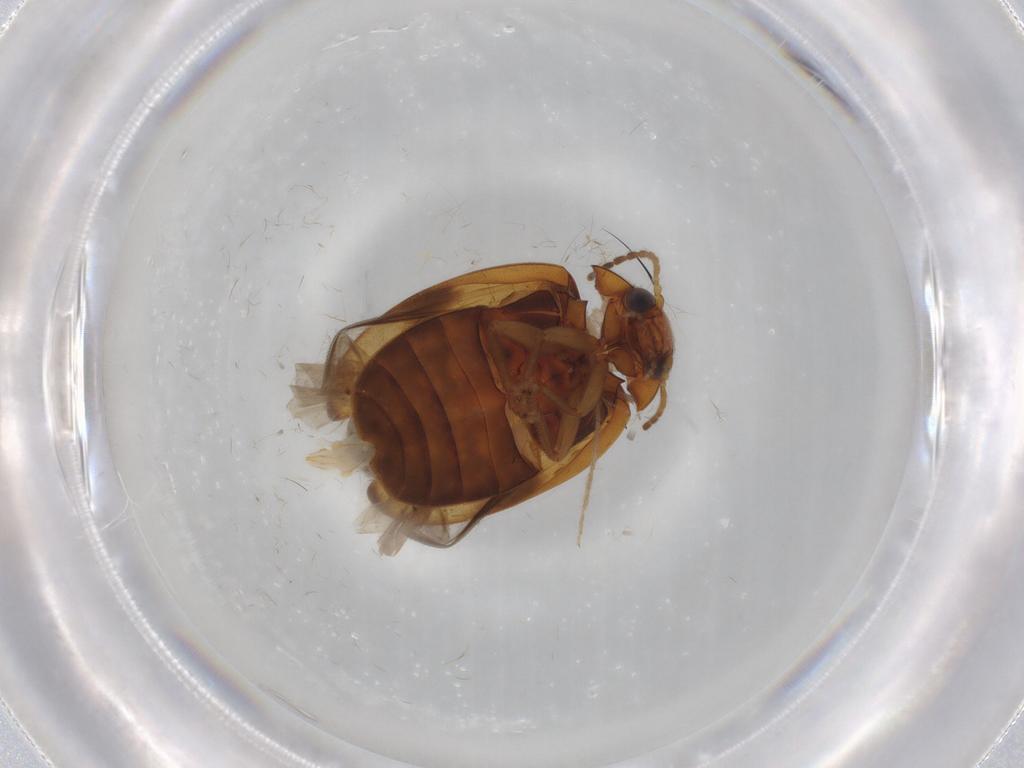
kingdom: Animalia
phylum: Arthropoda
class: Insecta
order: Coleoptera
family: Scirtidae
